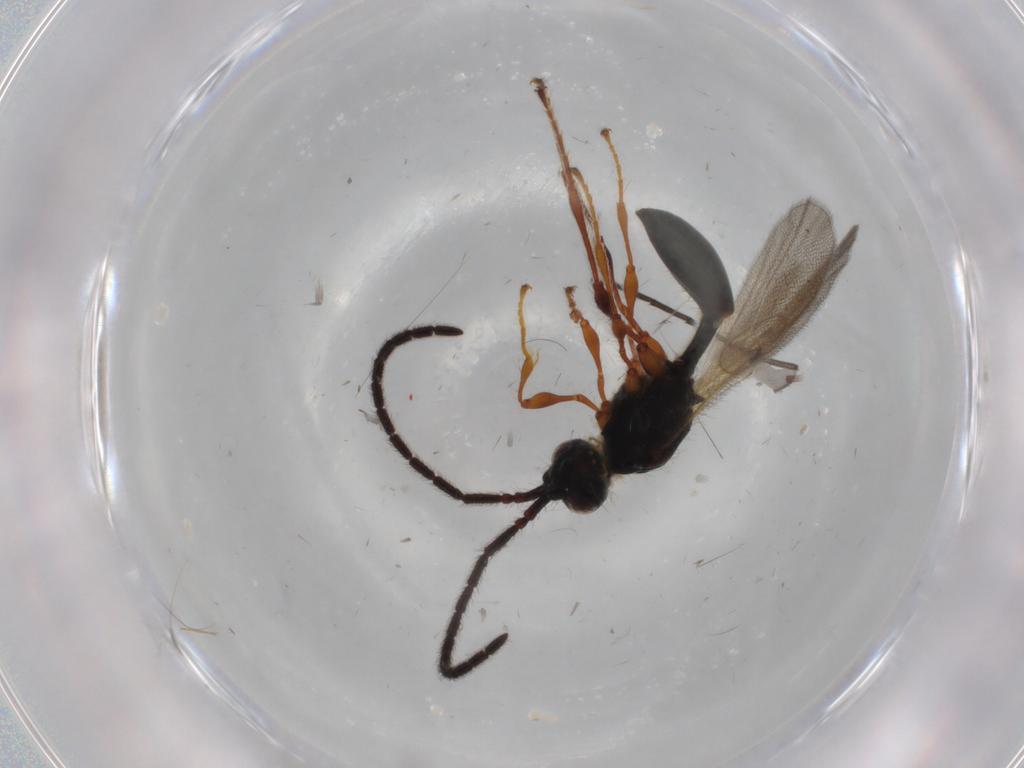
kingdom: Animalia
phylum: Arthropoda
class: Insecta
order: Hymenoptera
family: Diapriidae
